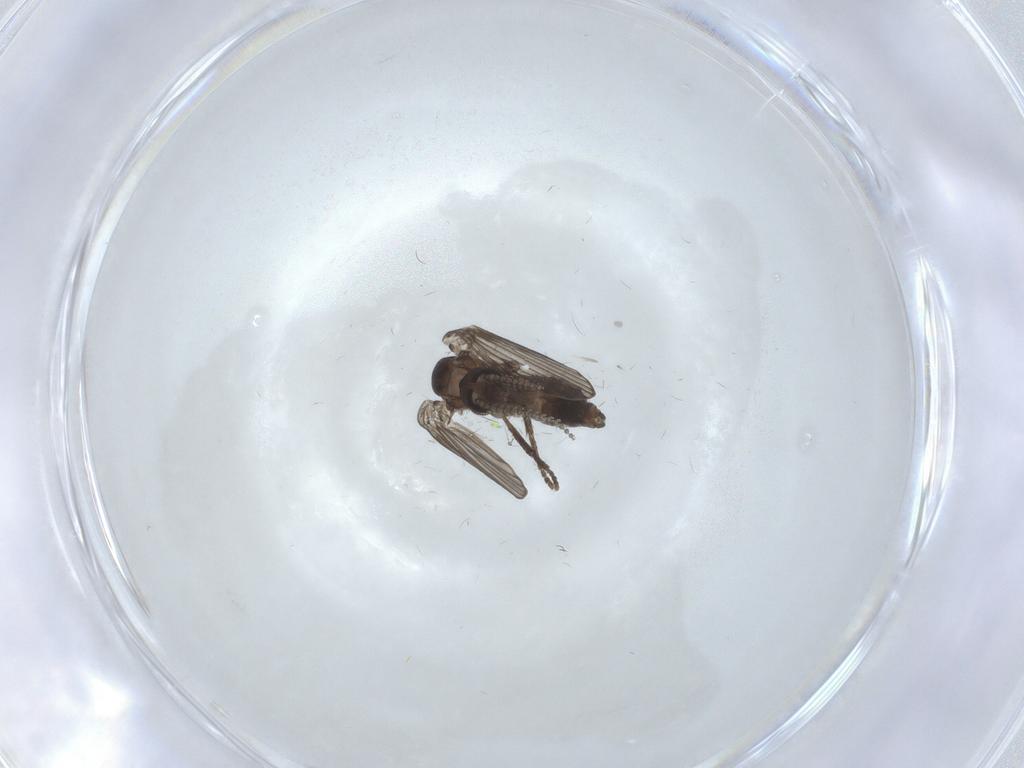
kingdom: Animalia
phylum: Arthropoda
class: Insecta
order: Diptera
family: Psychodidae
